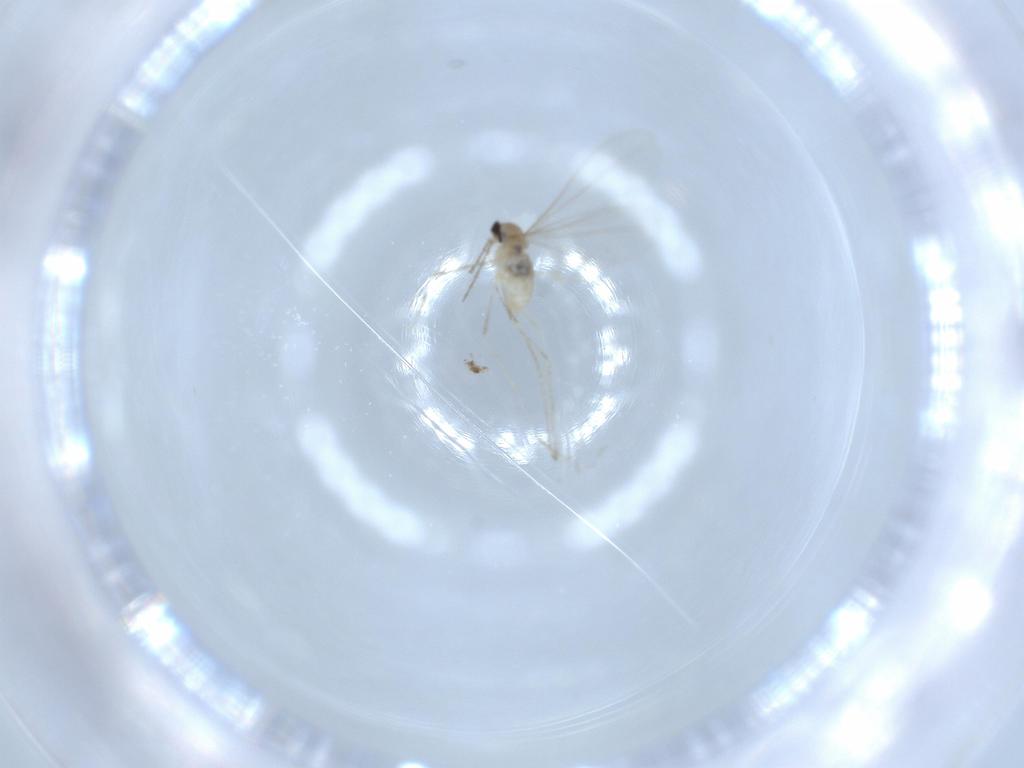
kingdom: Animalia
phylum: Arthropoda
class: Insecta
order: Diptera
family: Cecidomyiidae
